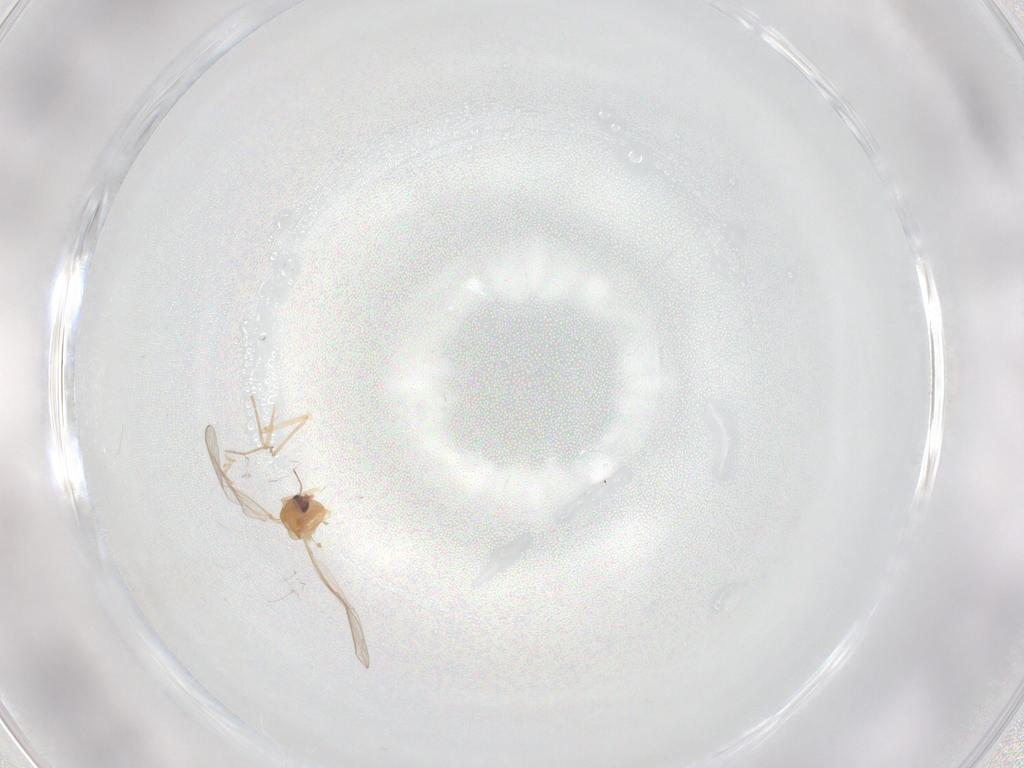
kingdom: Animalia
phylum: Arthropoda
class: Insecta
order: Diptera
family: Chironomidae
